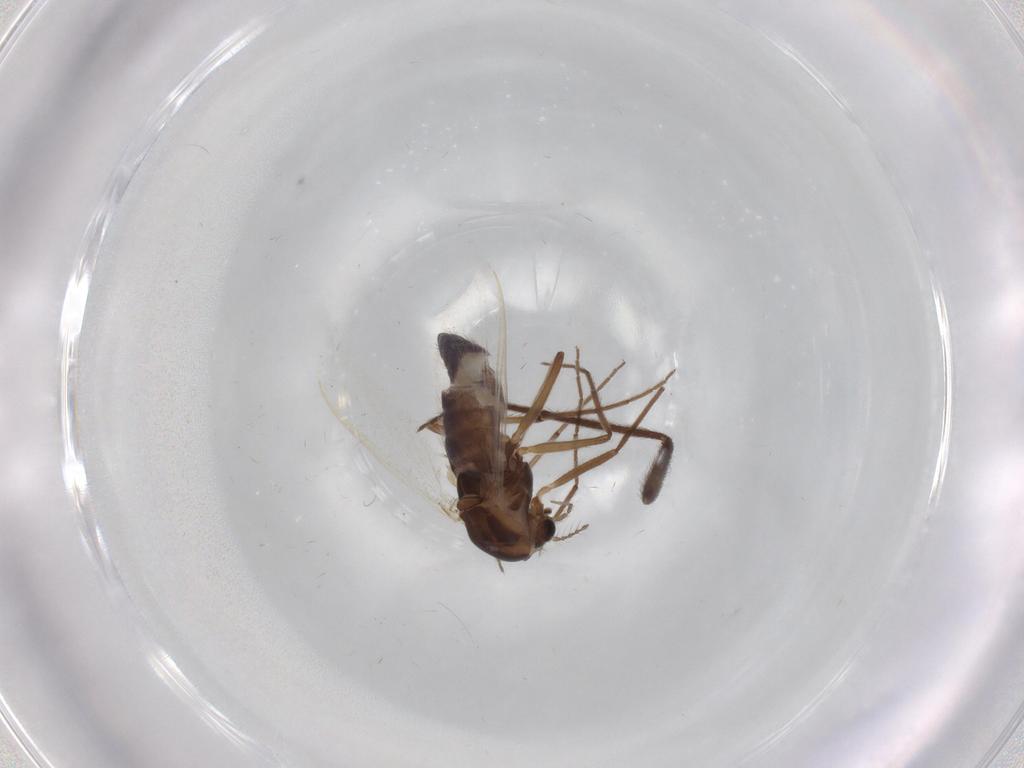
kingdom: Animalia
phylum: Arthropoda
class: Insecta
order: Diptera
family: Chironomidae
